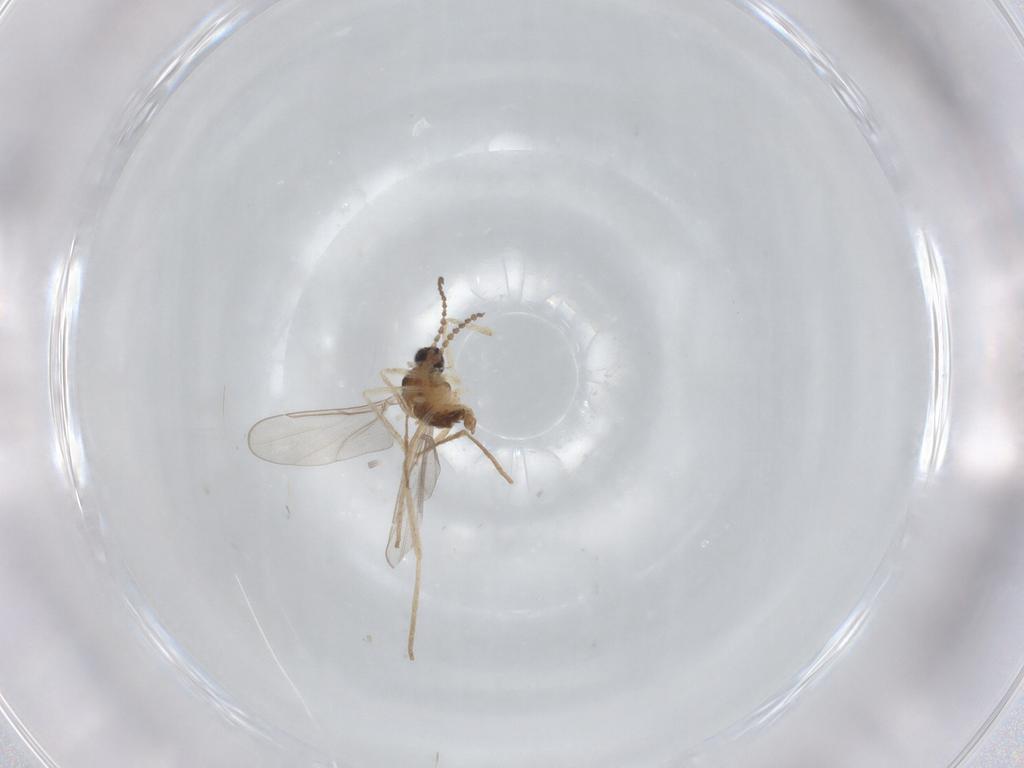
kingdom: Animalia
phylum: Arthropoda
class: Insecta
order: Diptera
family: Cecidomyiidae
